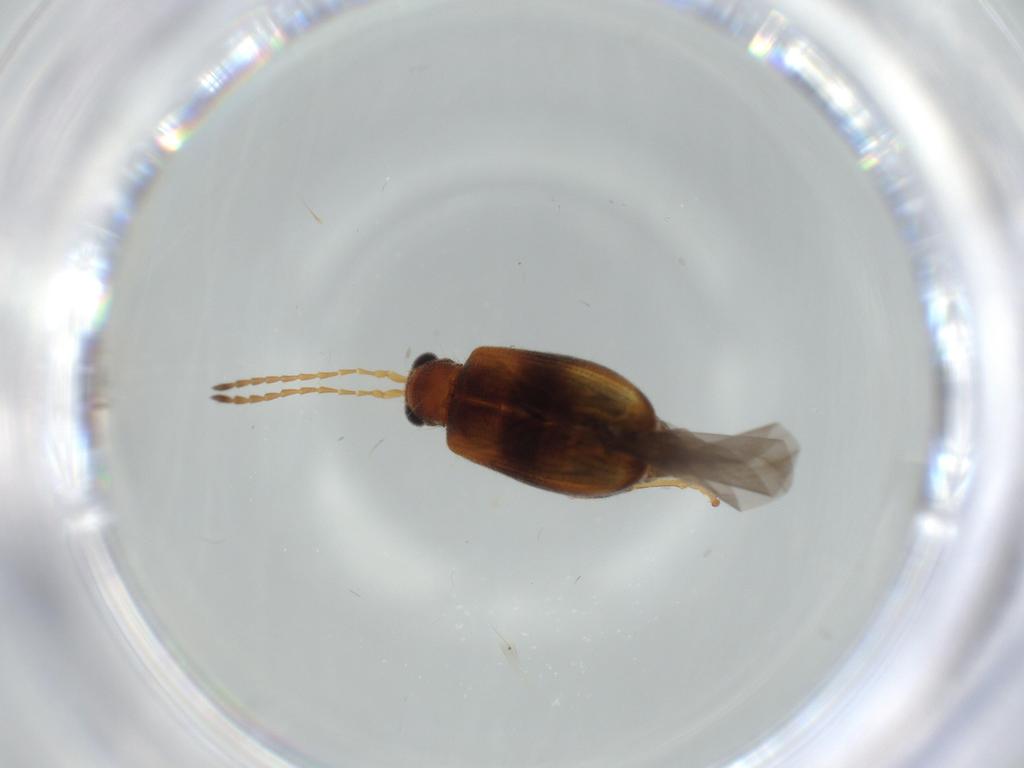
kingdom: Animalia
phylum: Arthropoda
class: Insecta
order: Coleoptera
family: Chrysomelidae
